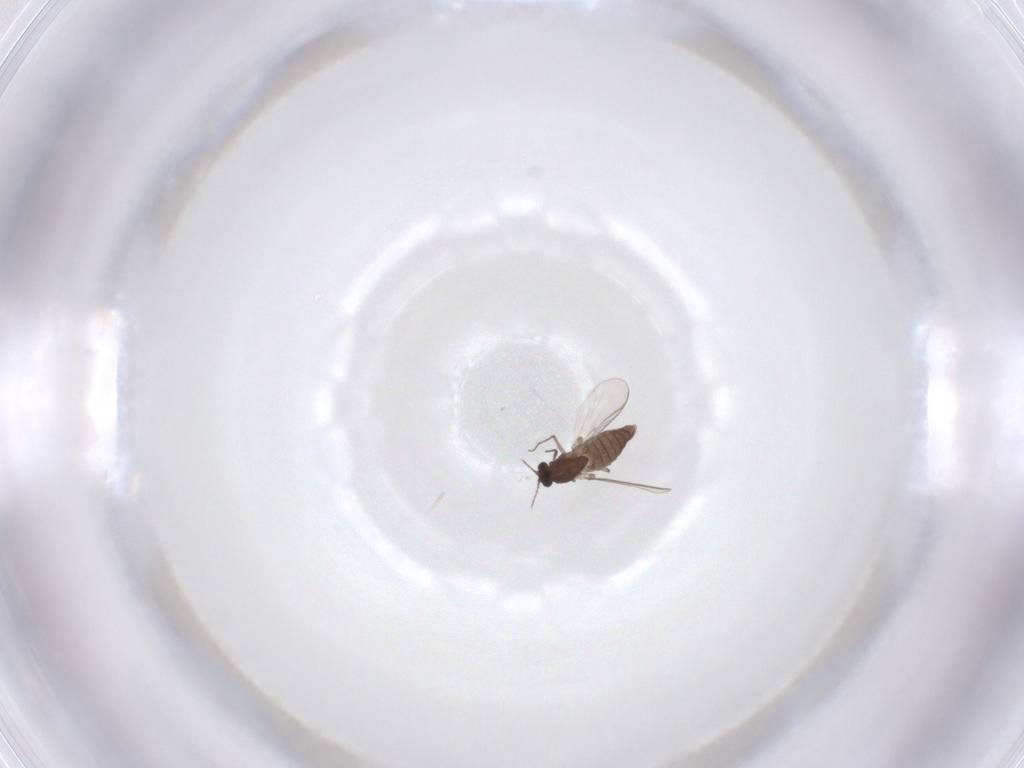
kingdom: Animalia
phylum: Arthropoda
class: Insecta
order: Diptera
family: Chironomidae
